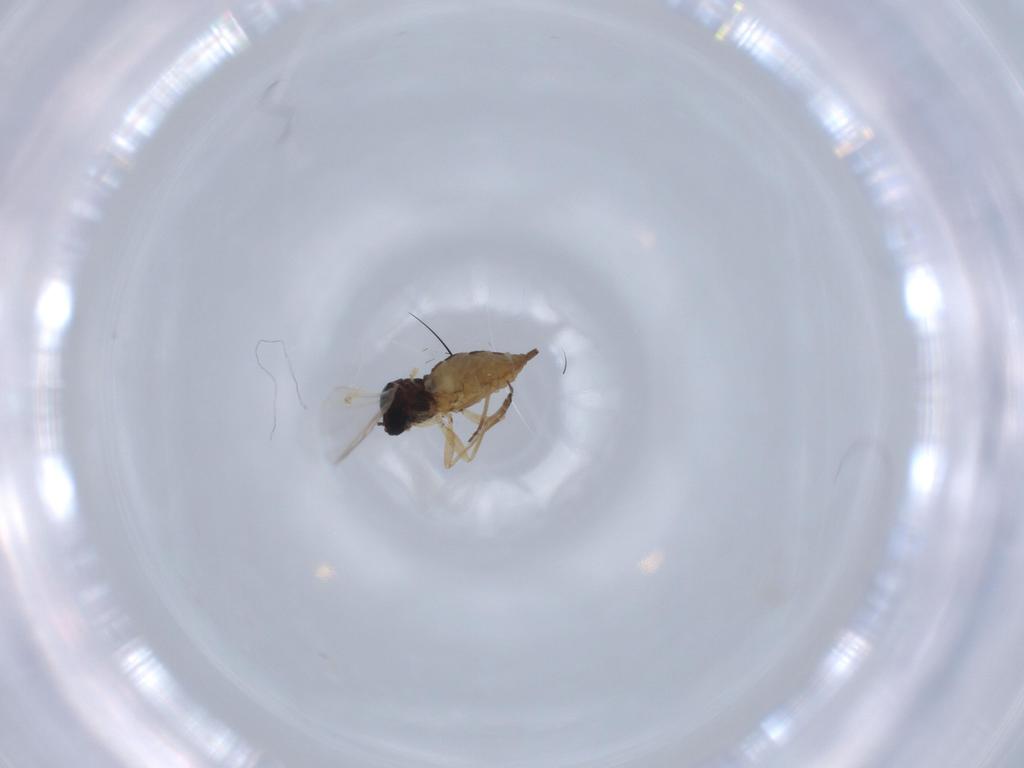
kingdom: Animalia
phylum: Arthropoda
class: Insecta
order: Diptera
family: Sciaridae
